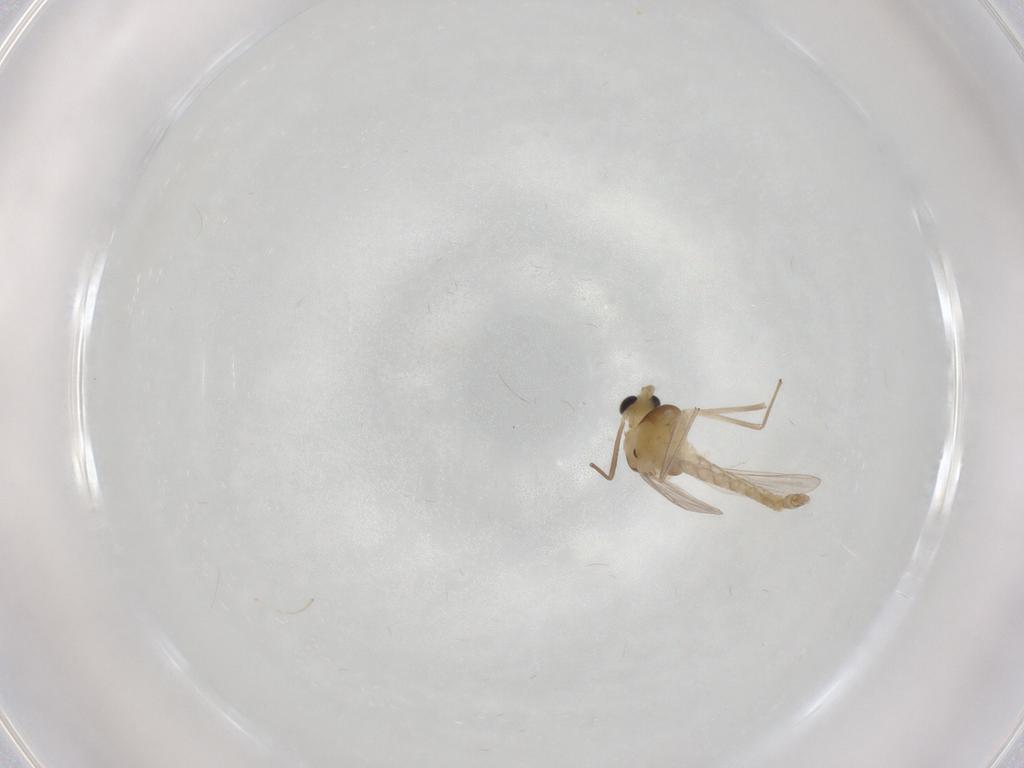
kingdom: Animalia
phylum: Arthropoda
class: Insecta
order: Diptera
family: Chironomidae
